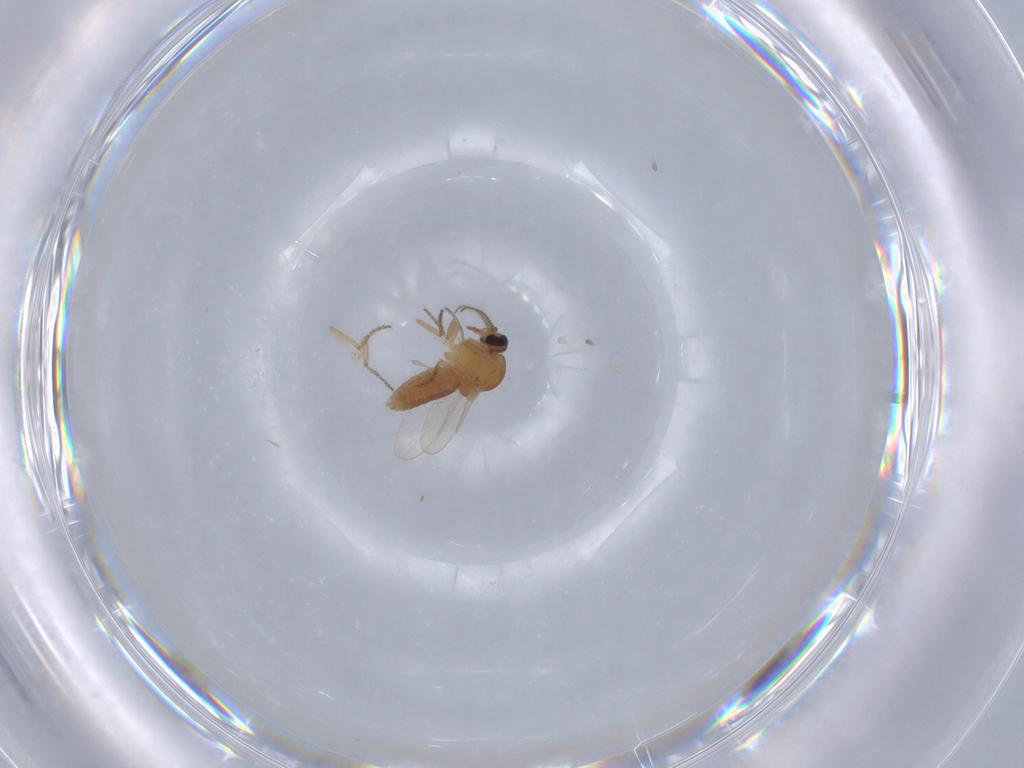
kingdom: Animalia
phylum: Arthropoda
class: Insecta
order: Diptera
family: Ceratopogonidae
